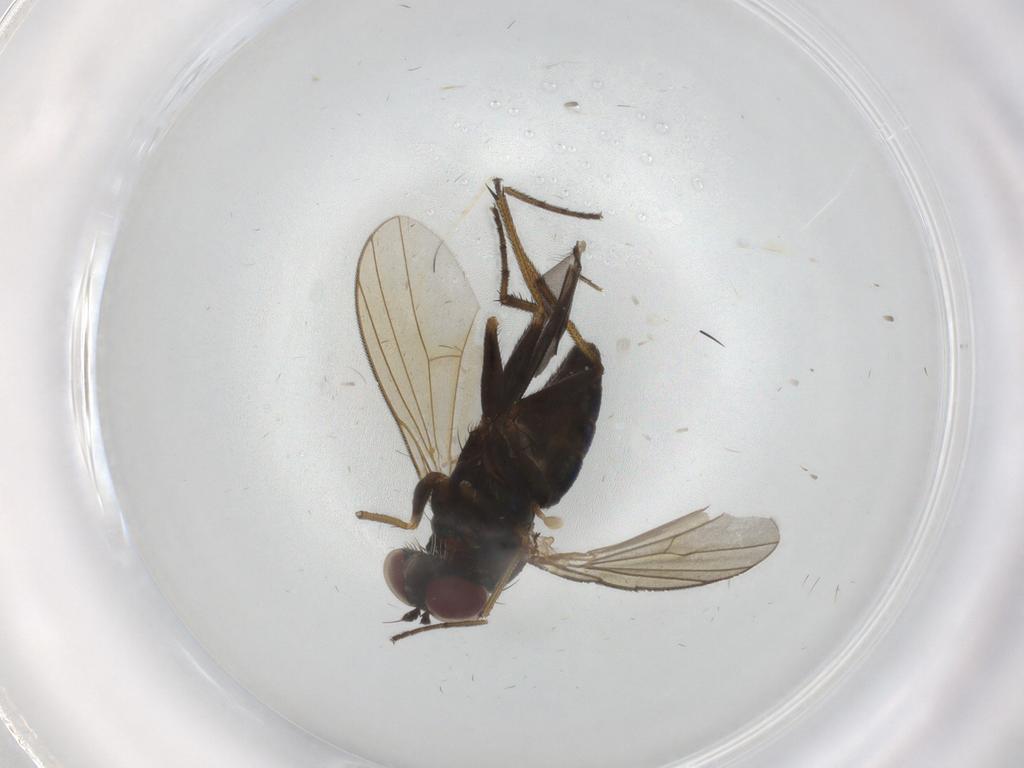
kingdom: Animalia
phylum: Arthropoda
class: Insecta
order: Diptera
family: Dolichopodidae
